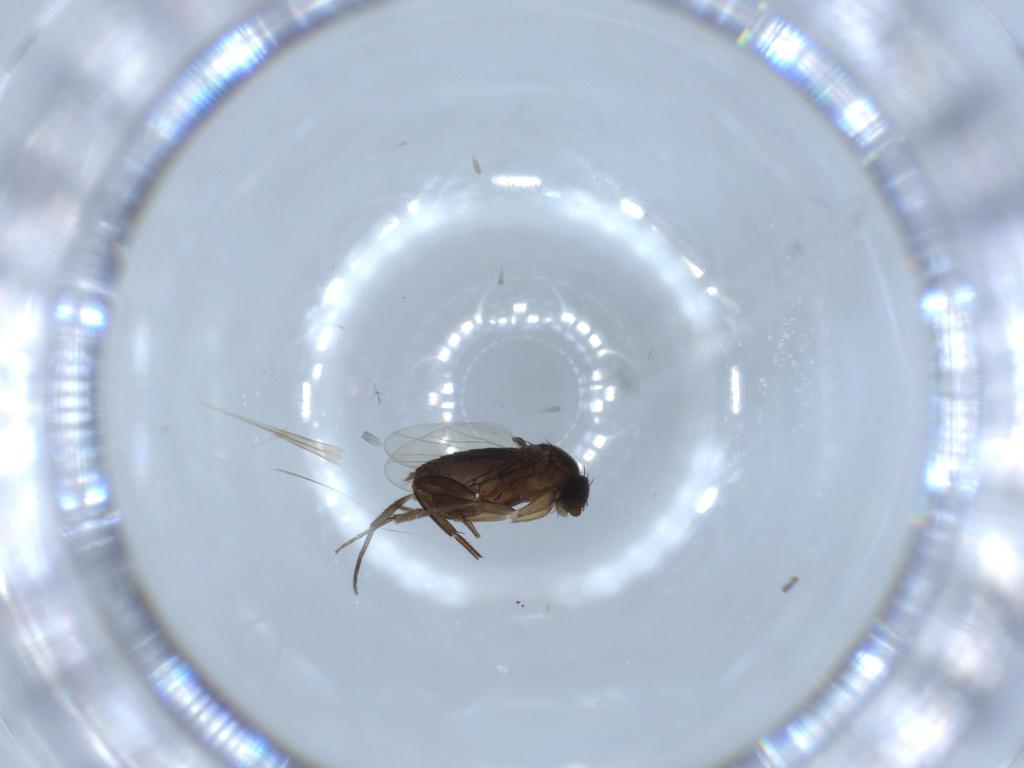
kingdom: Animalia
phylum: Arthropoda
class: Insecta
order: Diptera
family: Phoridae
